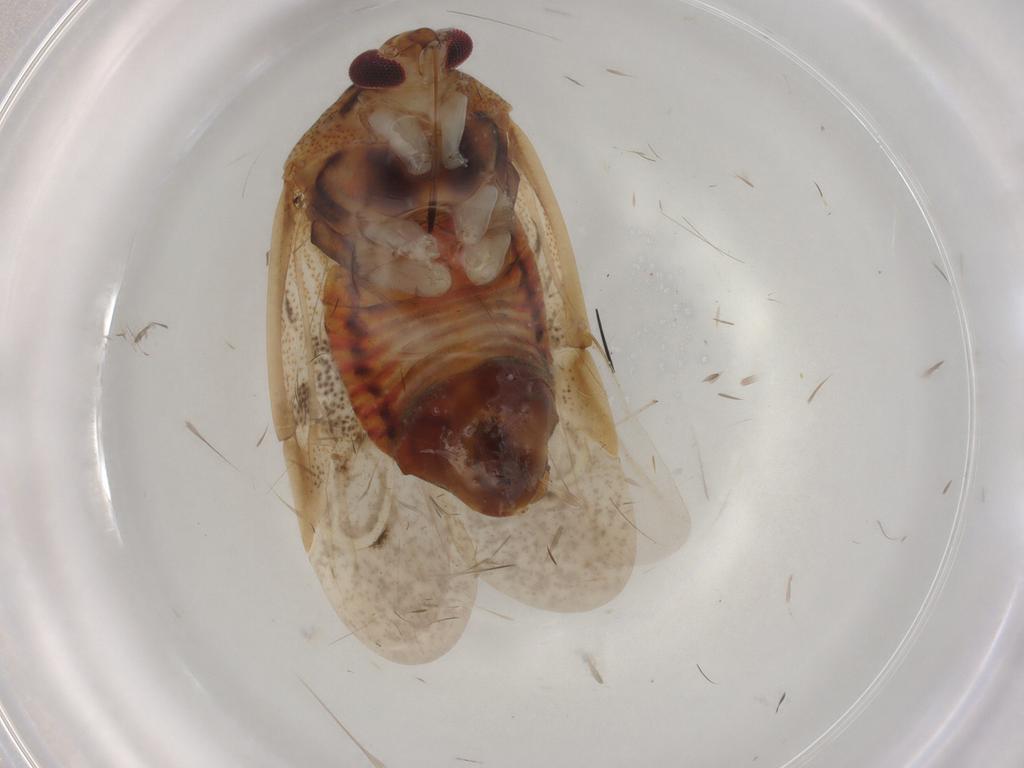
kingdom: Animalia
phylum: Arthropoda
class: Insecta
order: Hemiptera
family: Miridae
